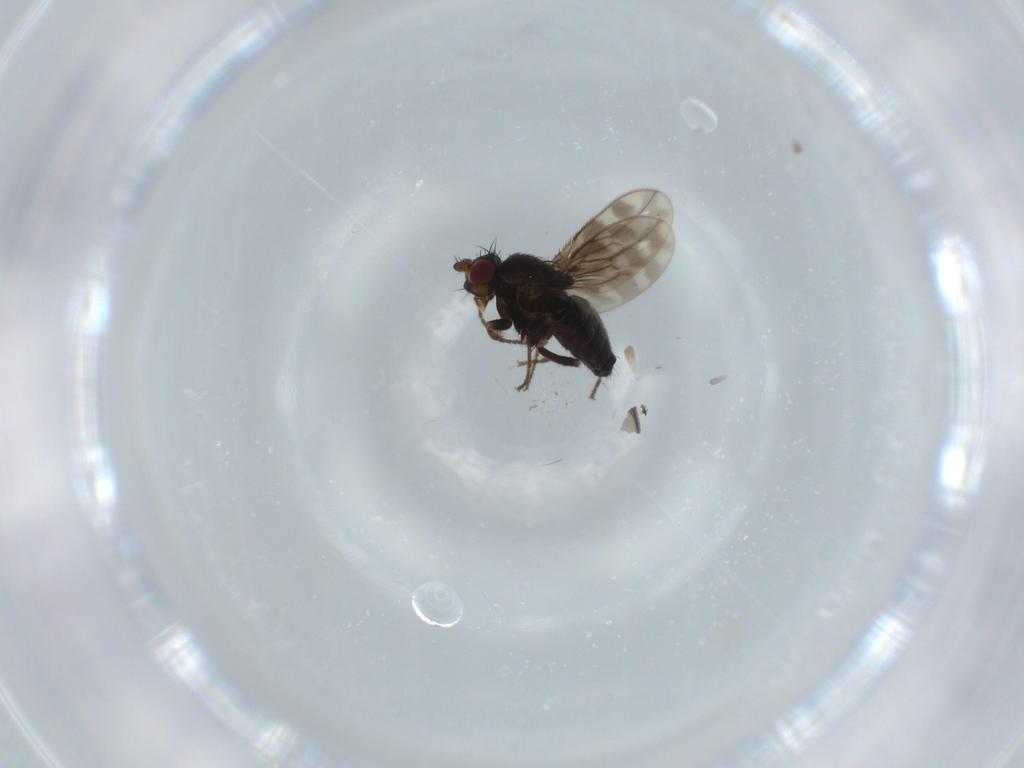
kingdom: Animalia
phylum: Arthropoda
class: Insecta
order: Diptera
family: Sphaeroceridae
